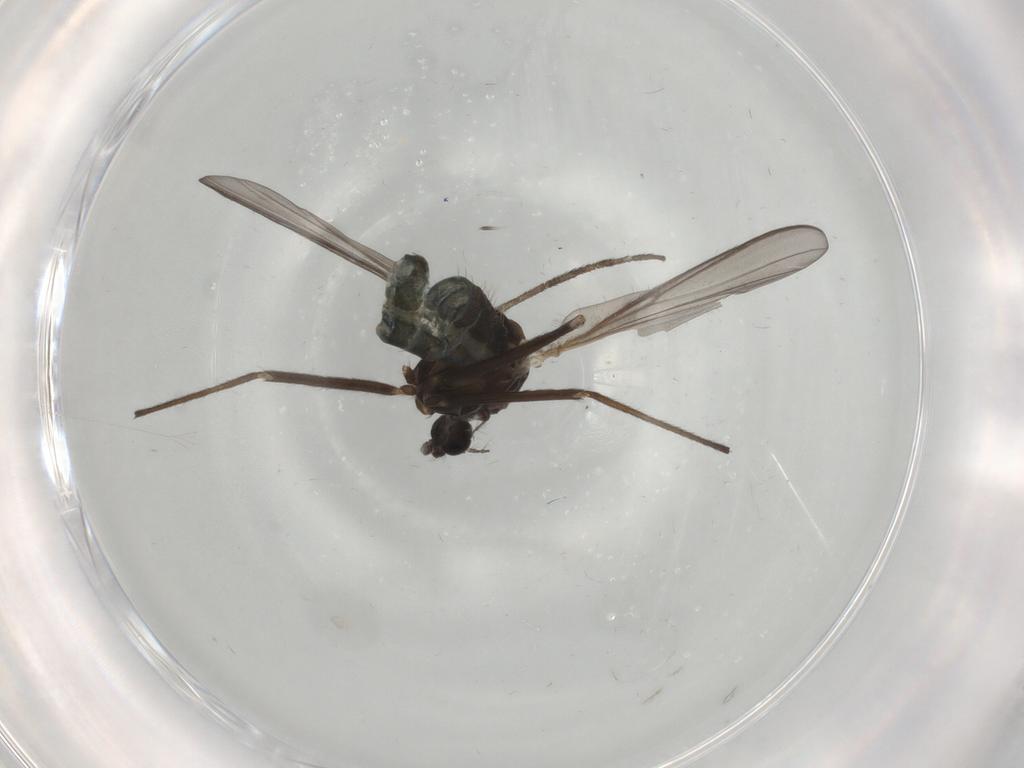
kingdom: Animalia
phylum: Arthropoda
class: Insecta
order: Diptera
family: Chironomidae
